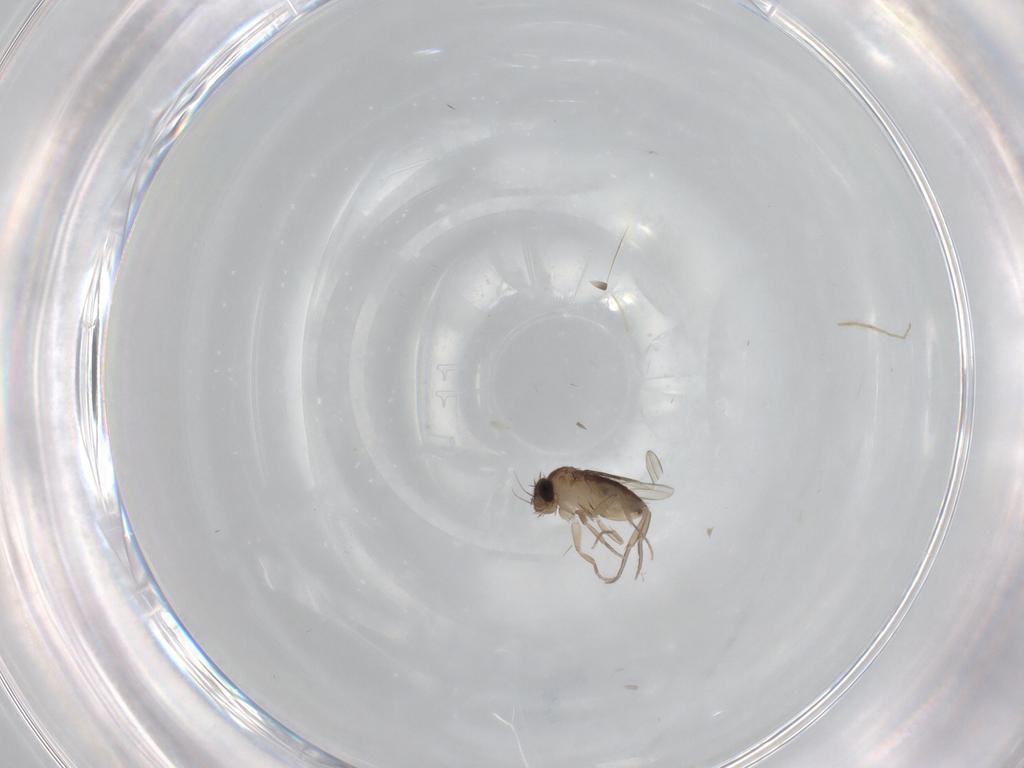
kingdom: Animalia
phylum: Arthropoda
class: Insecta
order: Diptera
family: Phoridae
